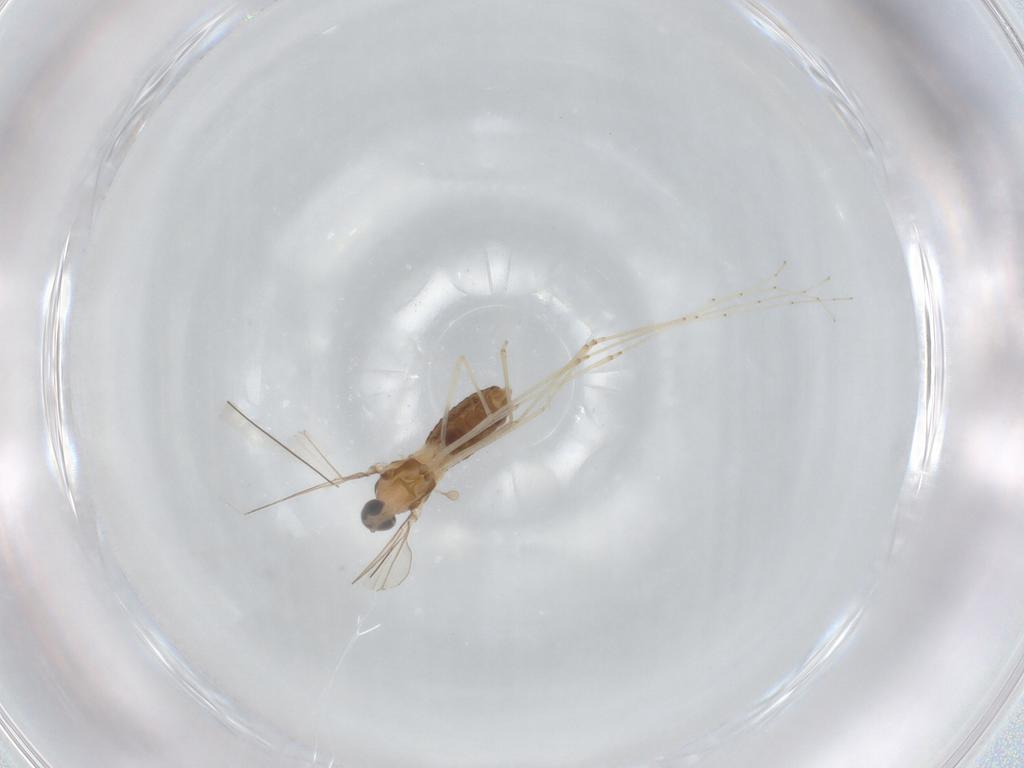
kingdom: Animalia
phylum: Arthropoda
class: Insecta
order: Diptera
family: Cecidomyiidae
